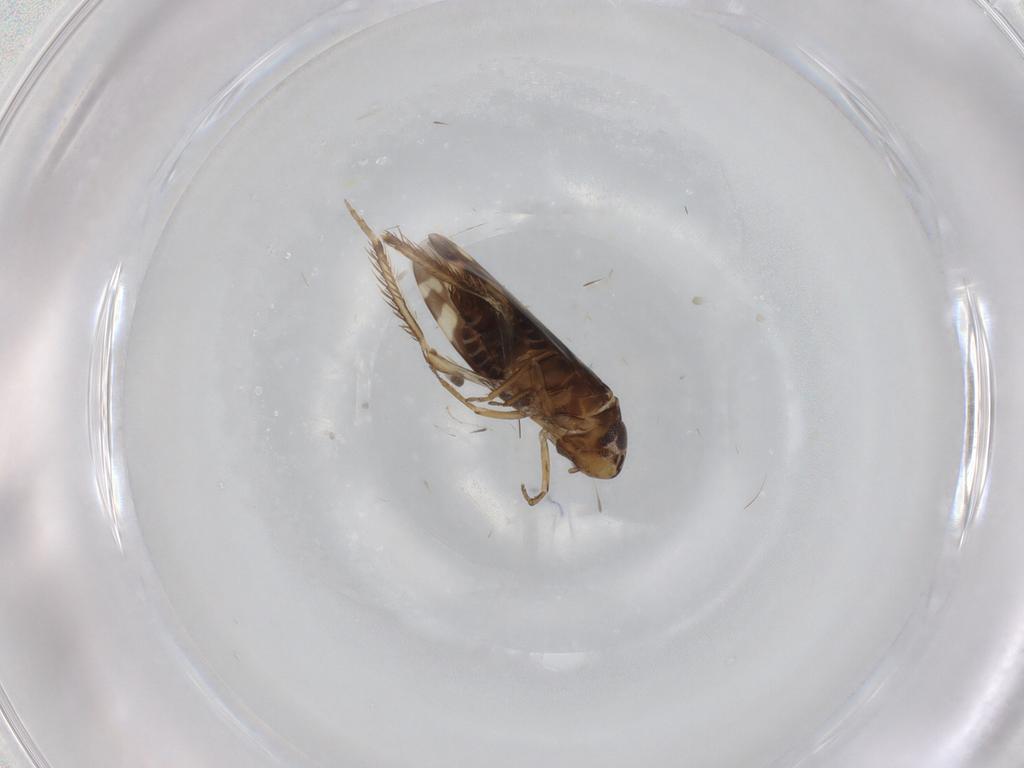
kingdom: Animalia
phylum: Arthropoda
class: Insecta
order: Hemiptera
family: Cicadellidae
